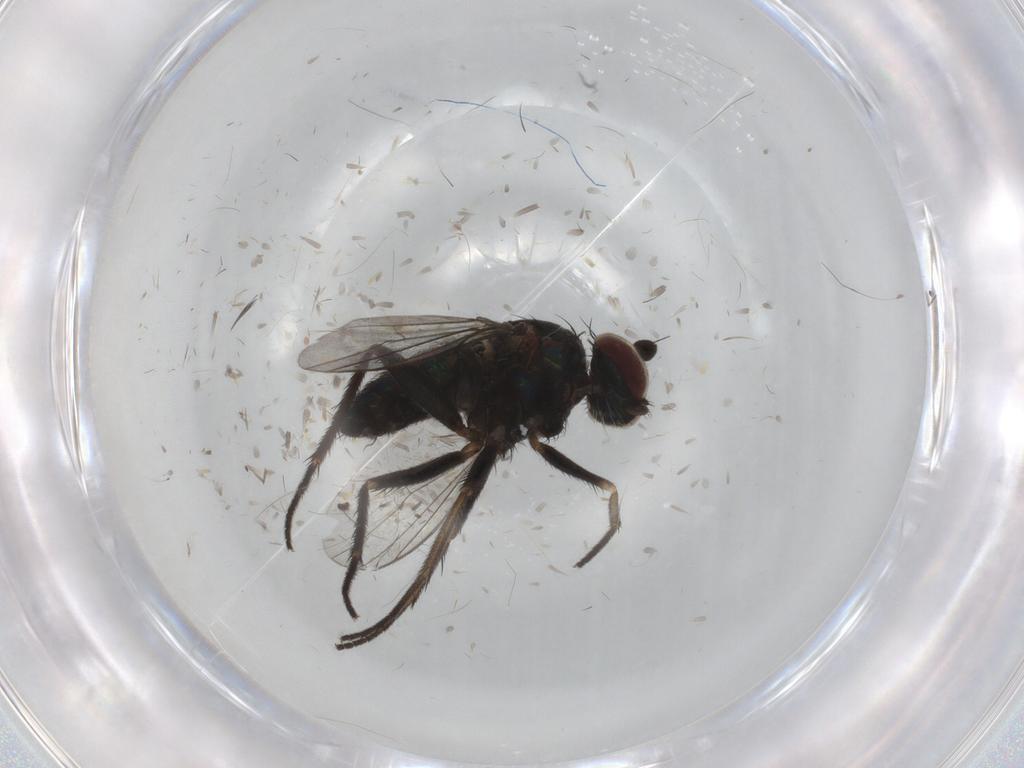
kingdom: Animalia
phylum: Arthropoda
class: Insecta
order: Diptera
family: Dolichopodidae
